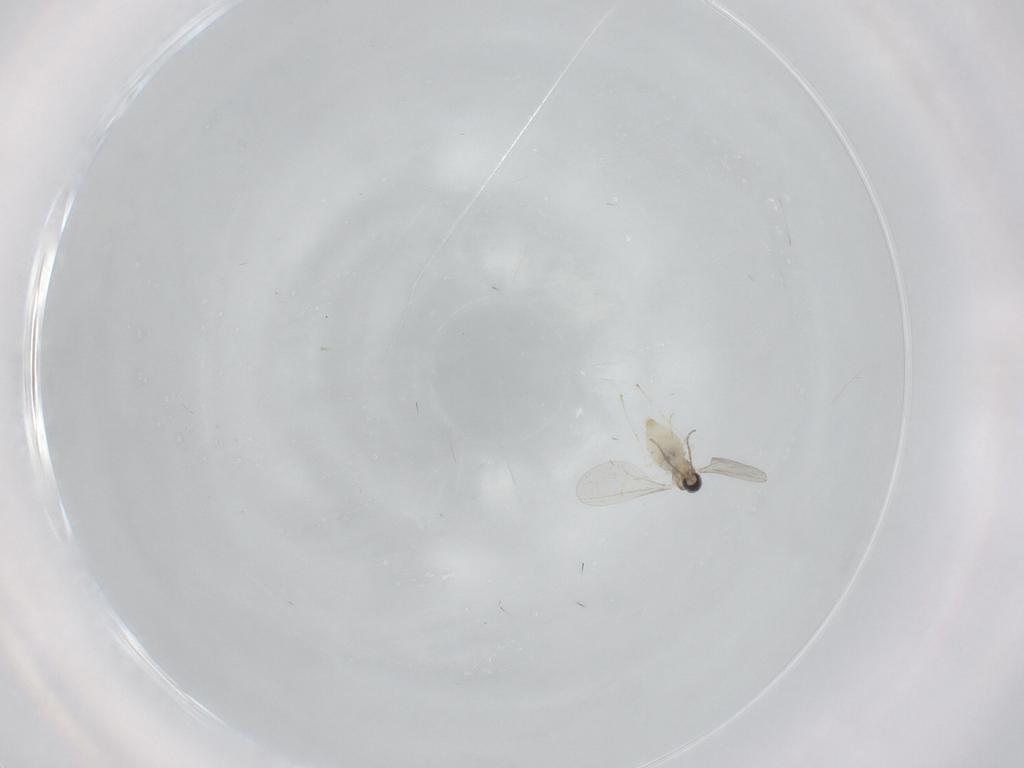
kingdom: Animalia
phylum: Arthropoda
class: Insecta
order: Diptera
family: Cecidomyiidae
